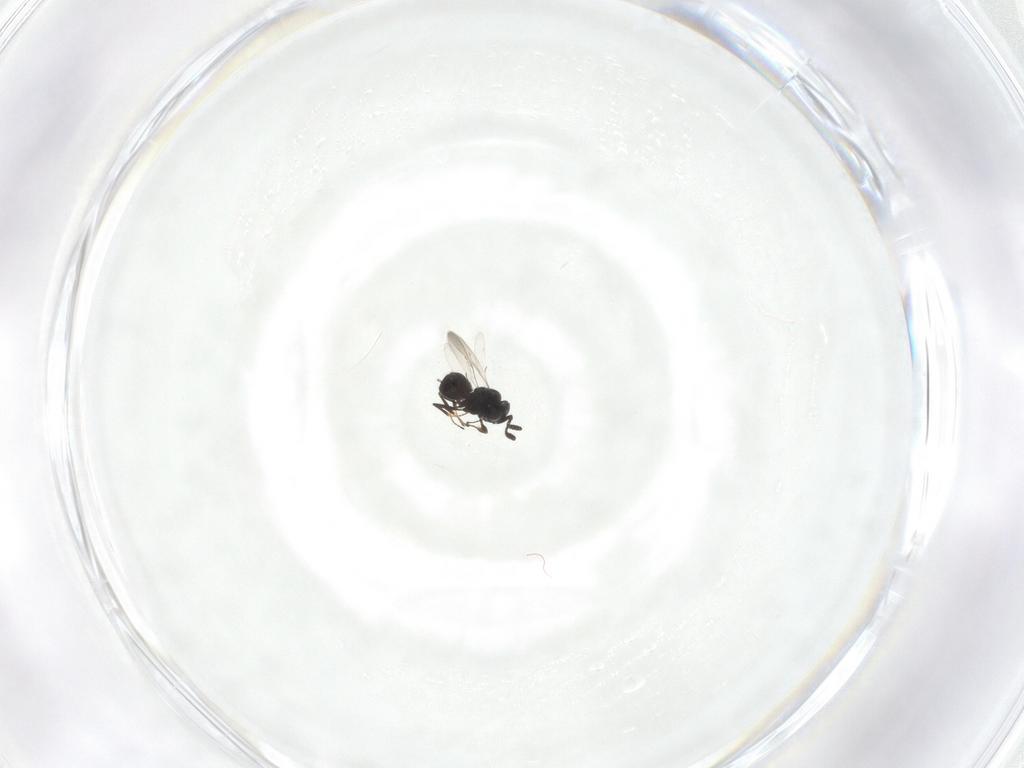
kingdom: Animalia
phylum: Arthropoda
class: Insecta
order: Hymenoptera
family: Scelionidae
